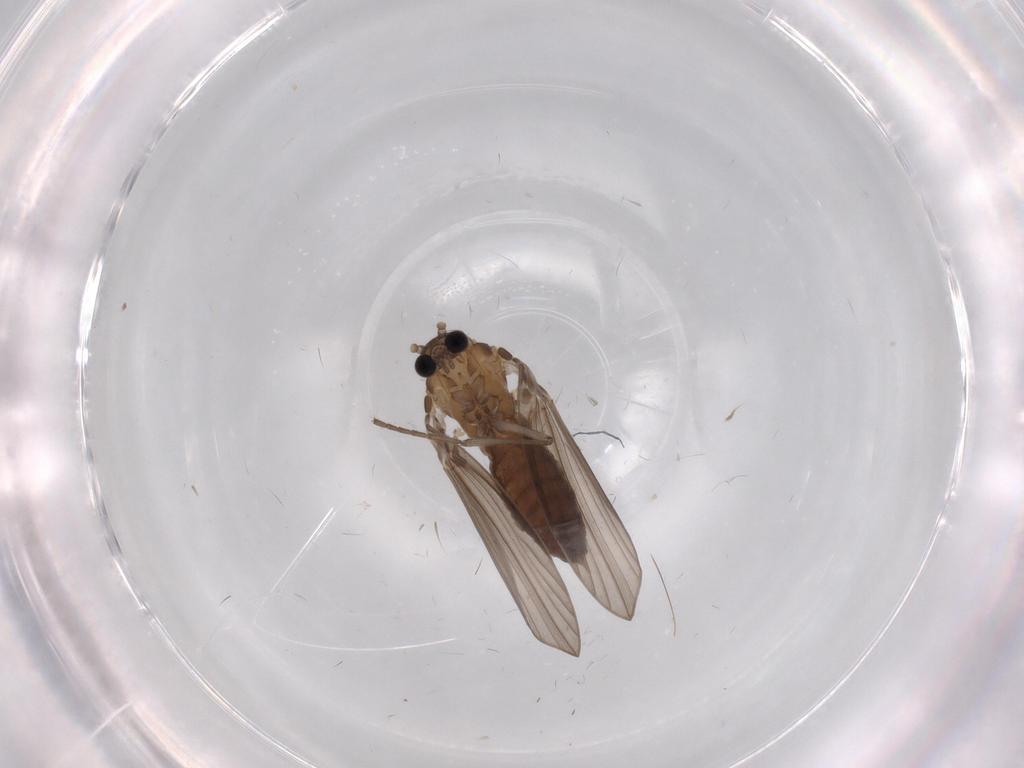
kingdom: Animalia
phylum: Arthropoda
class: Insecta
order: Diptera
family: Psychodidae
